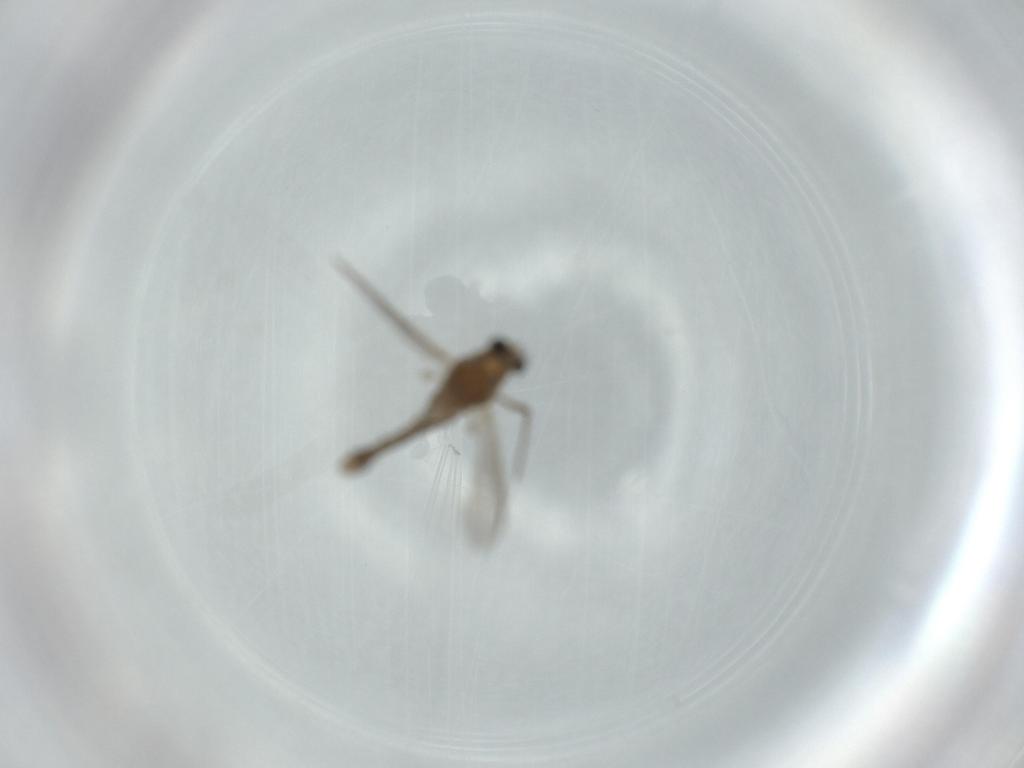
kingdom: Animalia
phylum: Arthropoda
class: Insecta
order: Diptera
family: Chironomidae
